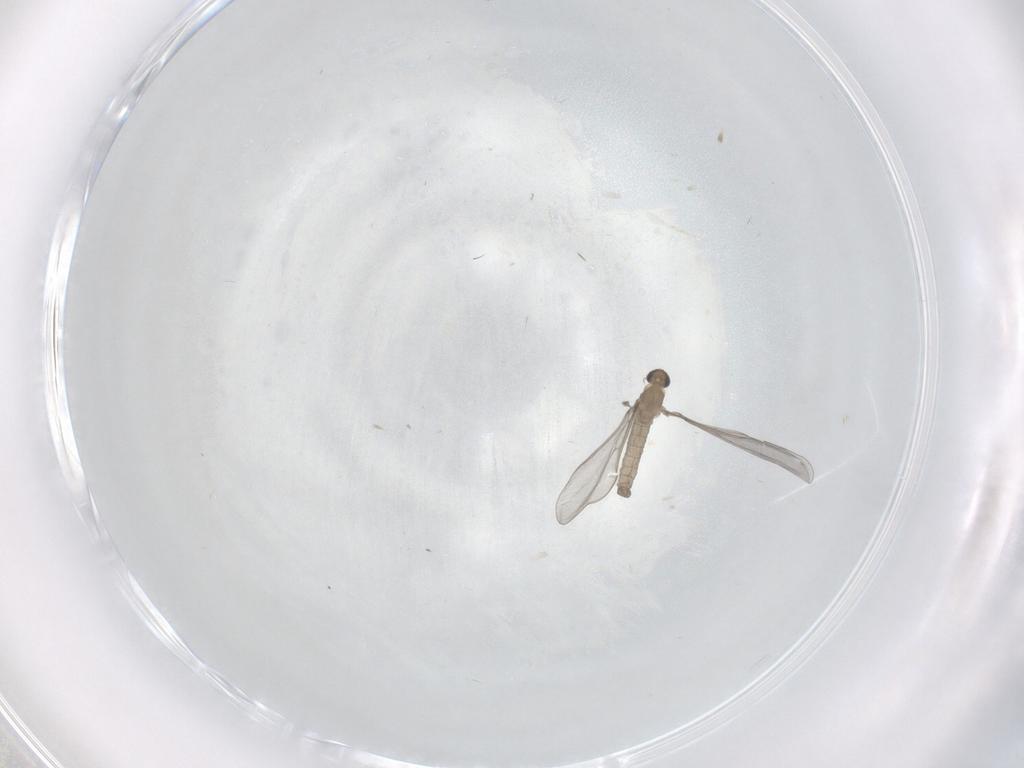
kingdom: Animalia
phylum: Arthropoda
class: Insecta
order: Diptera
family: Cecidomyiidae
